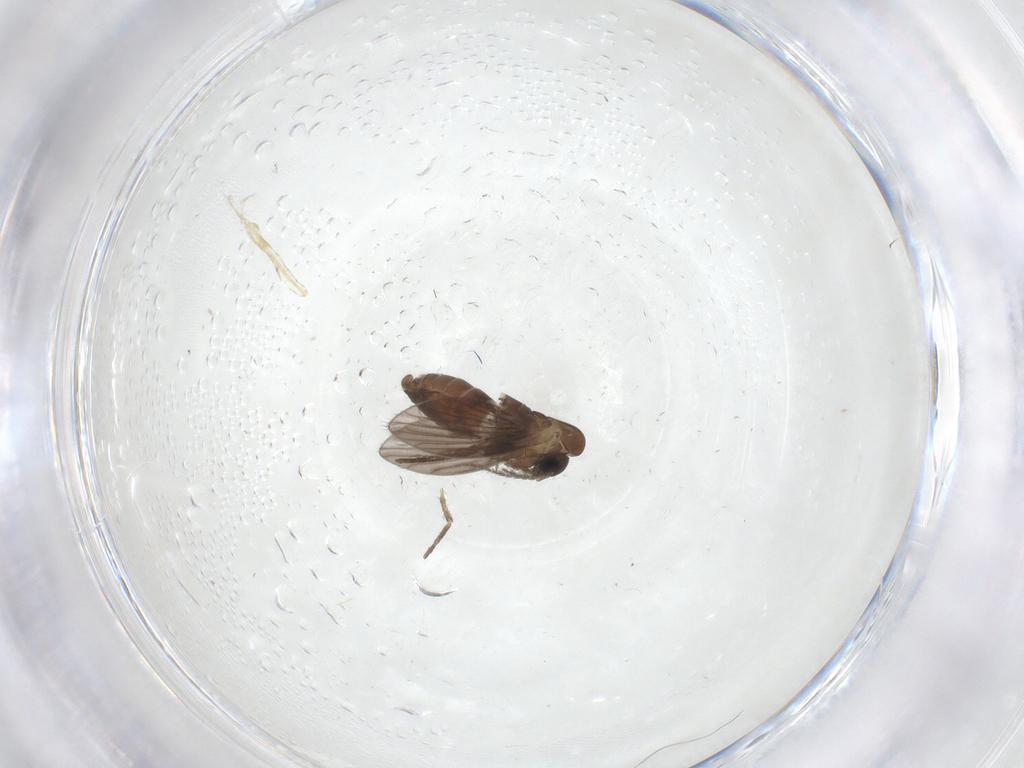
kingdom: Animalia
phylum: Arthropoda
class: Insecta
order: Diptera
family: Psychodidae
